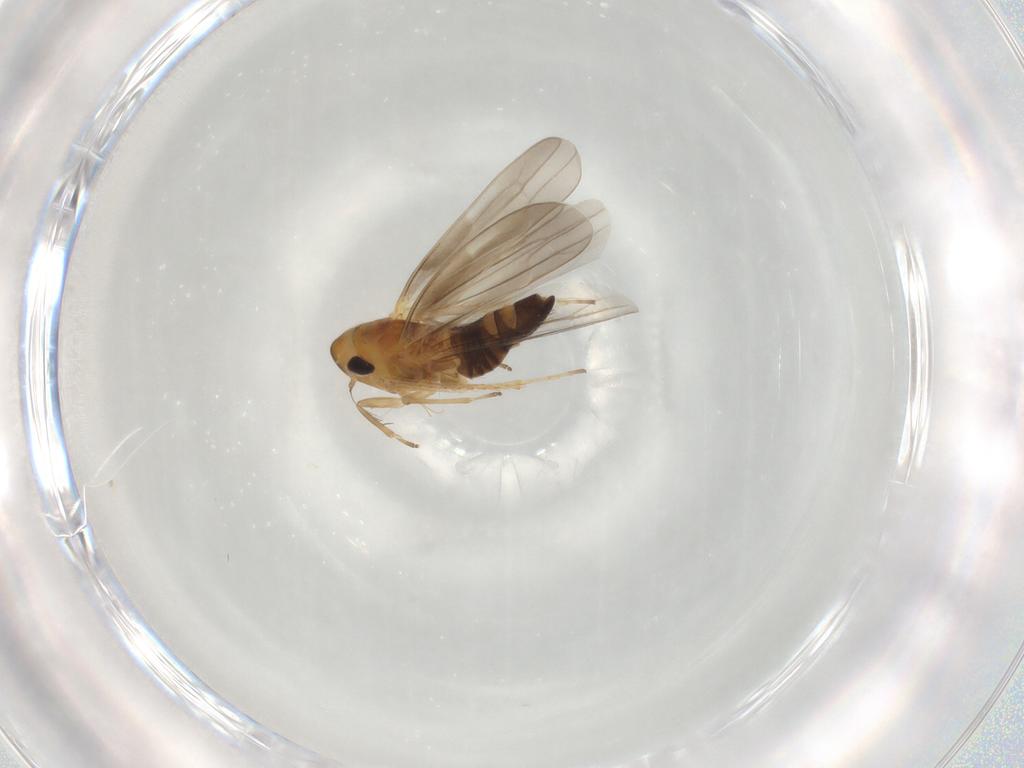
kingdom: Animalia
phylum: Arthropoda
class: Insecta
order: Hemiptera
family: Cicadellidae
